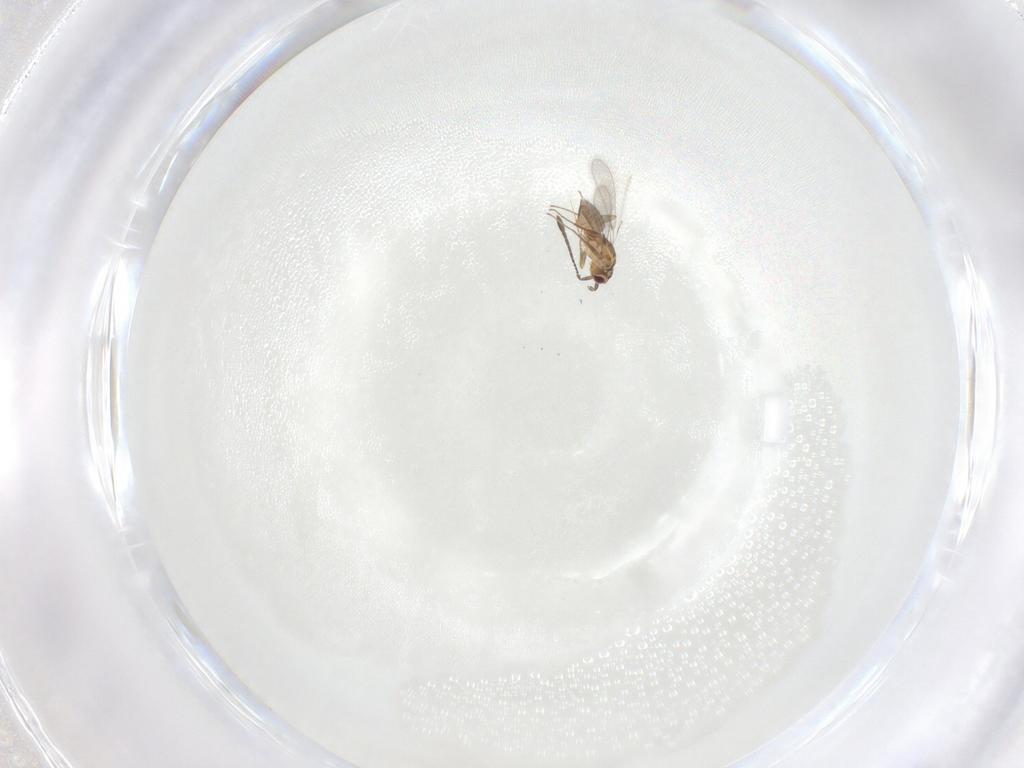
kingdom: Animalia
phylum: Arthropoda
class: Insecta
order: Hymenoptera
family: Mymaridae
